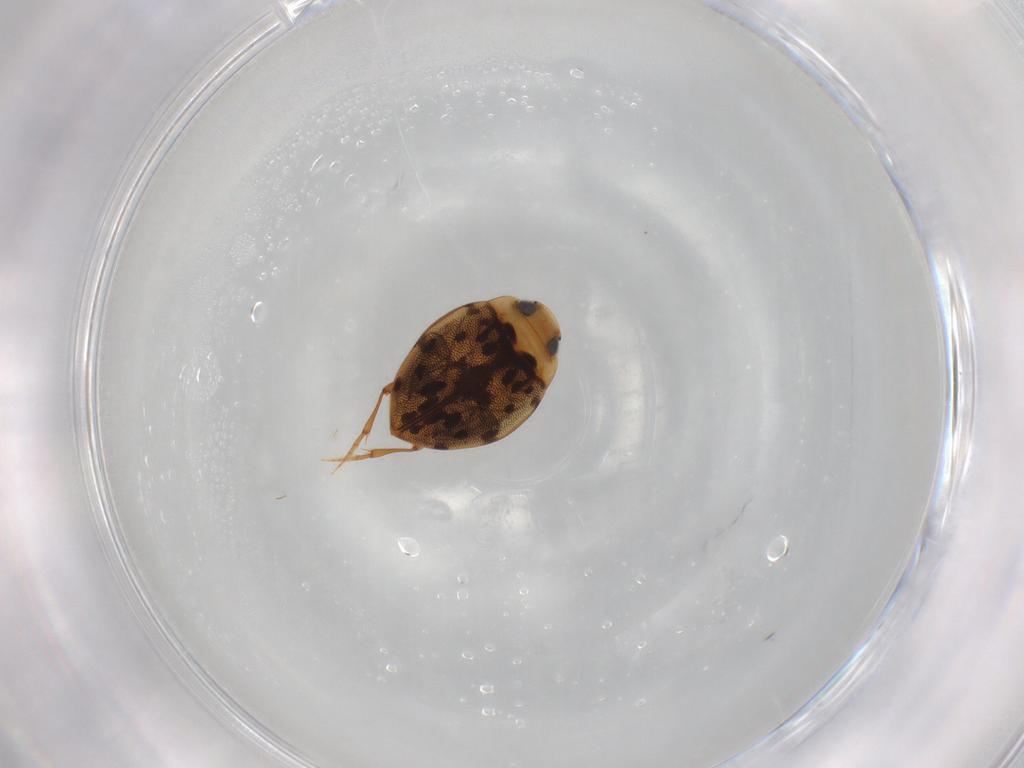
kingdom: Animalia
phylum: Arthropoda
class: Insecta
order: Coleoptera
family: Dytiscidae
